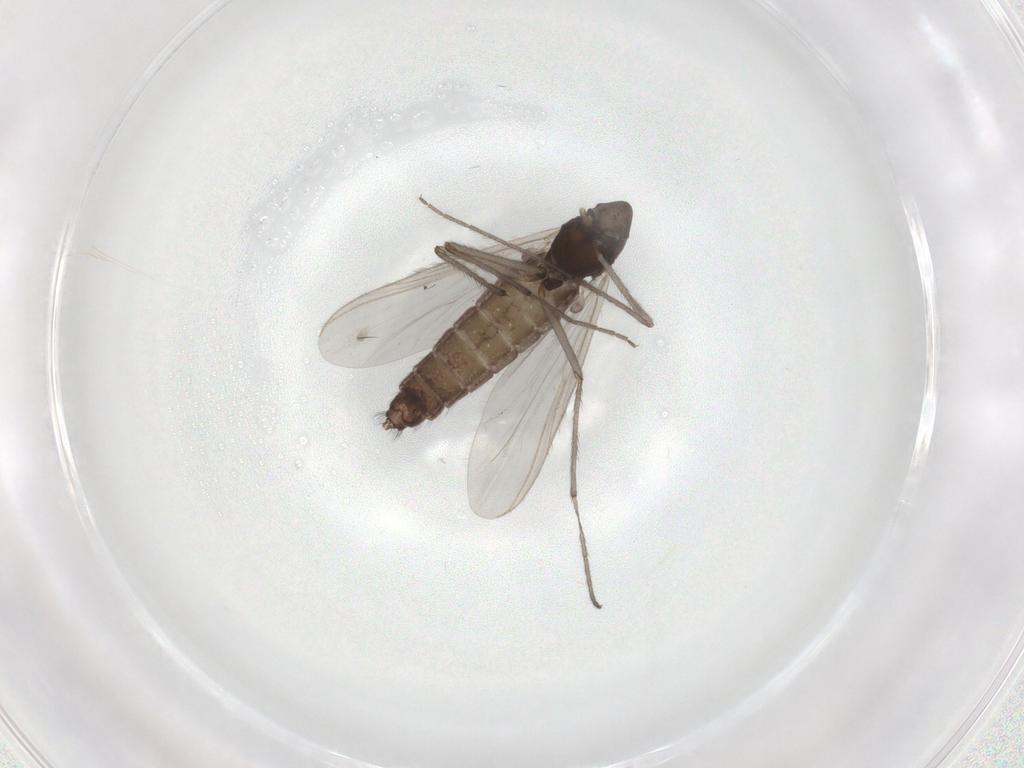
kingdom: Animalia
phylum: Arthropoda
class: Insecta
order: Diptera
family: Chironomidae
